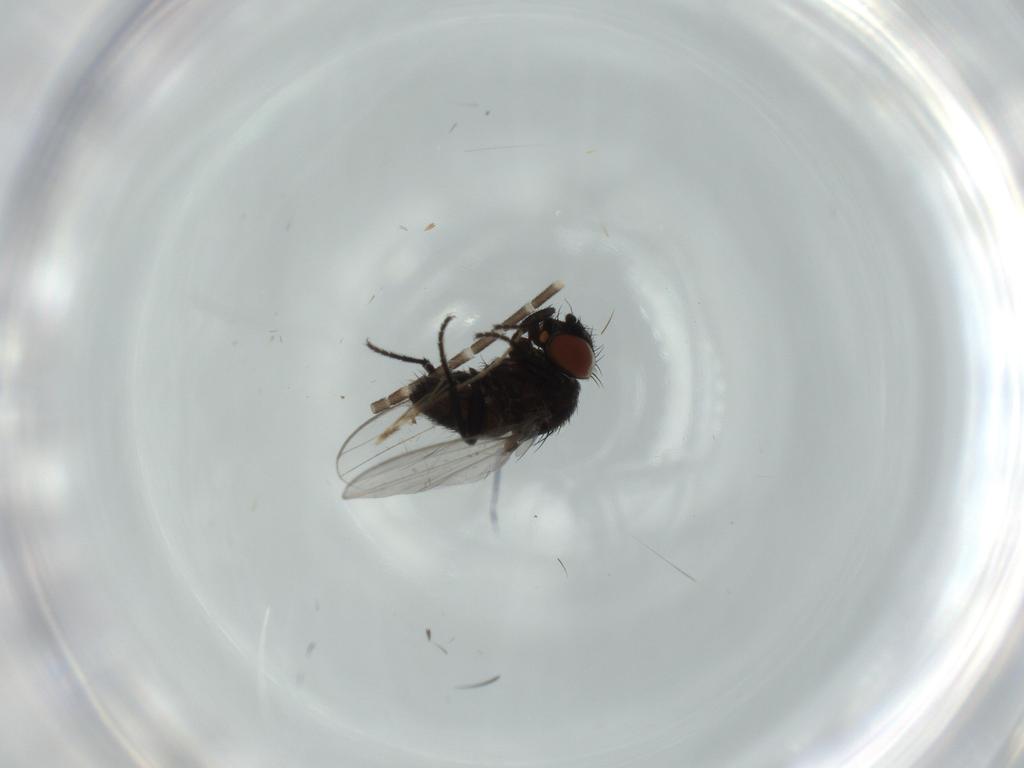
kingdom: Animalia
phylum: Arthropoda
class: Insecta
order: Diptera
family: Milichiidae
